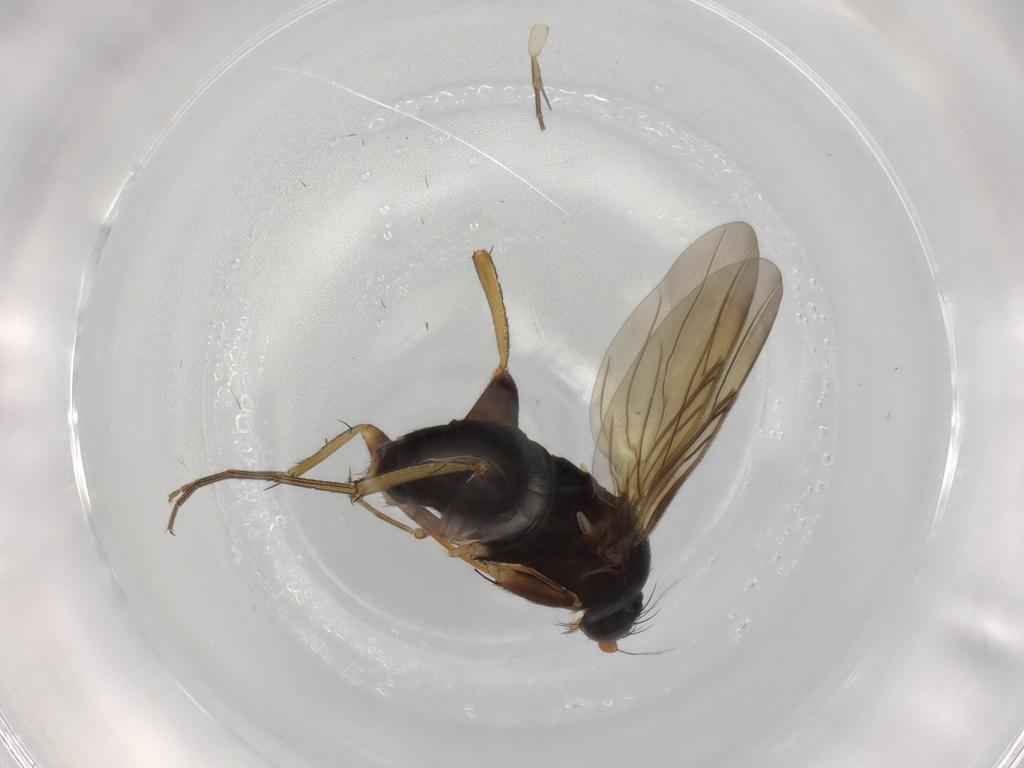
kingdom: Animalia
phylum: Arthropoda
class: Insecta
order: Diptera
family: Phoridae
